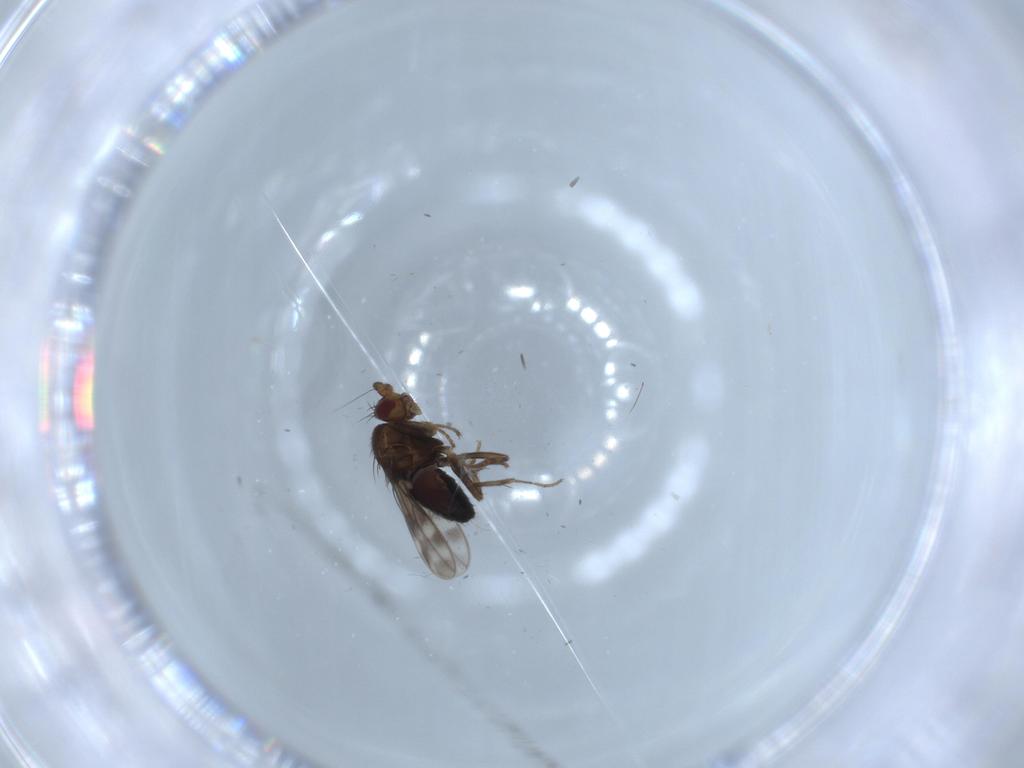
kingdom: Animalia
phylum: Arthropoda
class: Insecta
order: Diptera
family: Sphaeroceridae
